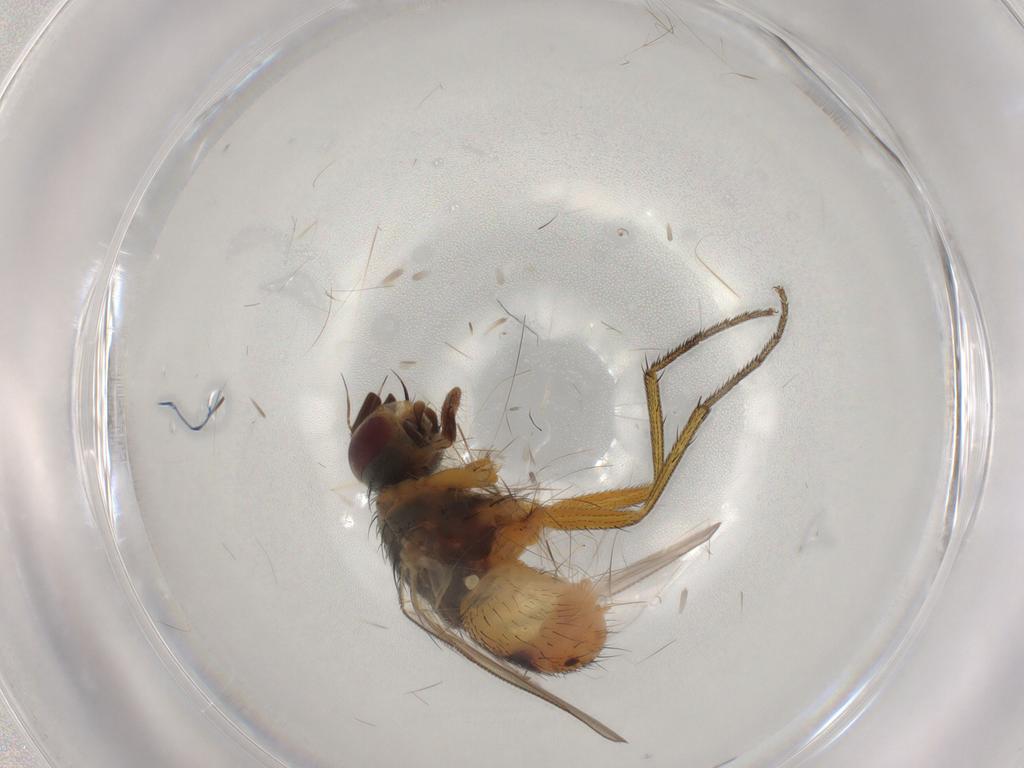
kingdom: Animalia
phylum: Arthropoda
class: Insecta
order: Diptera
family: Muscidae
